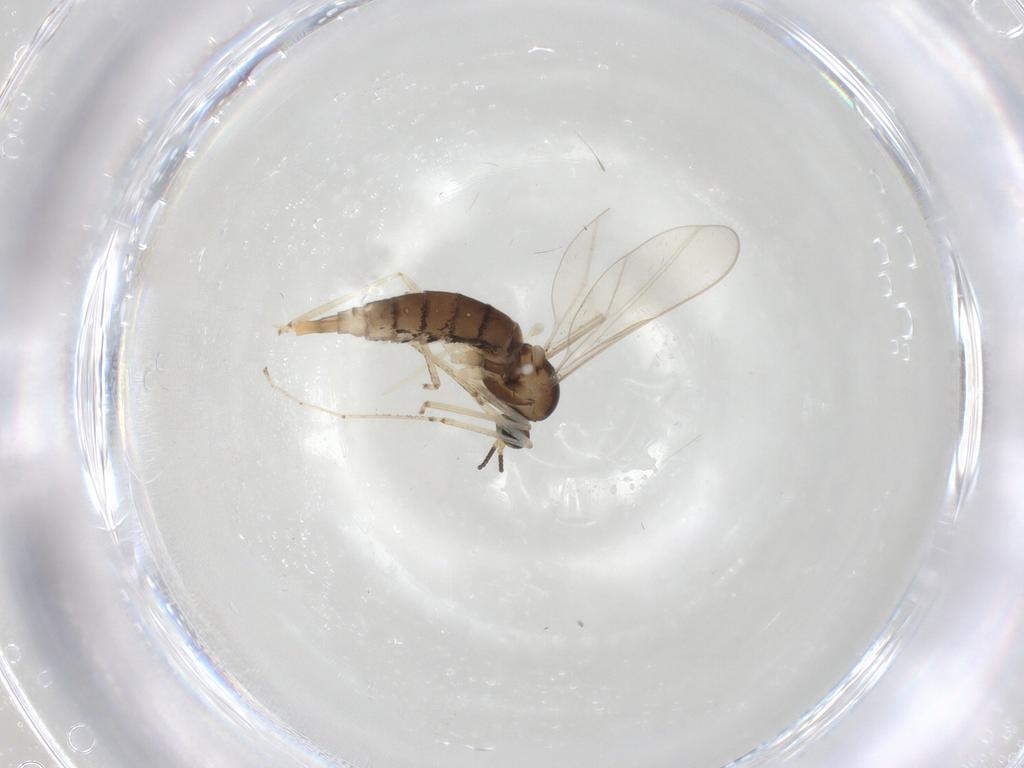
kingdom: Animalia
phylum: Arthropoda
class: Insecta
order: Diptera
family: Cecidomyiidae
